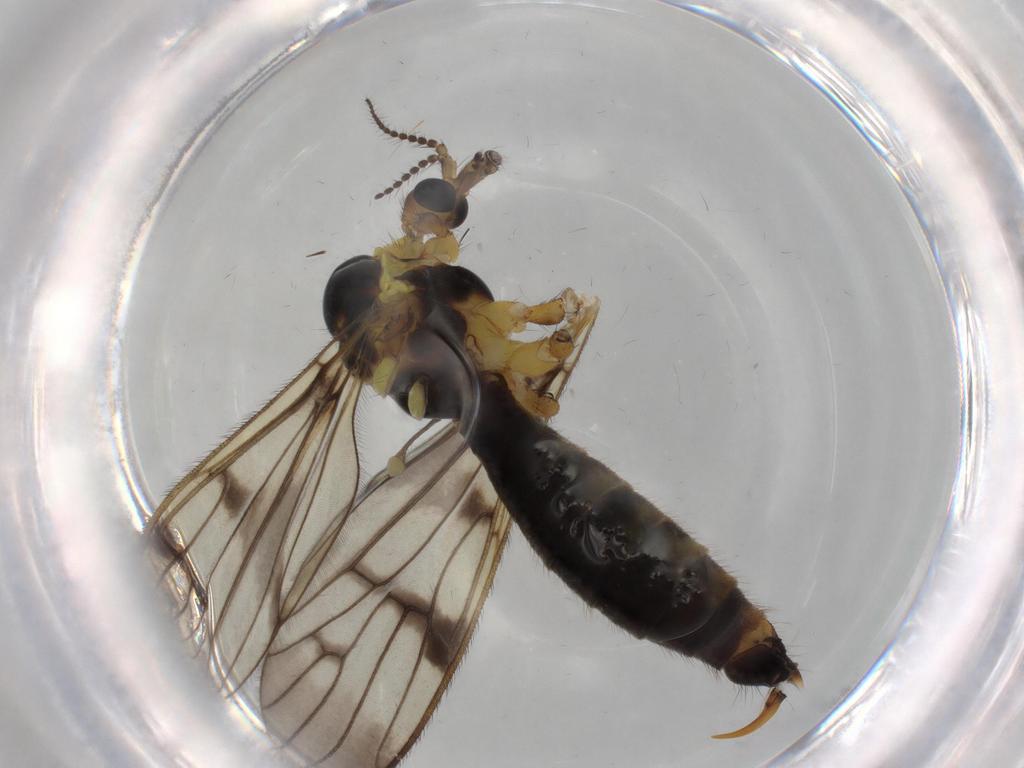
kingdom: Animalia
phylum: Arthropoda
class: Insecta
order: Diptera
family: Limoniidae
